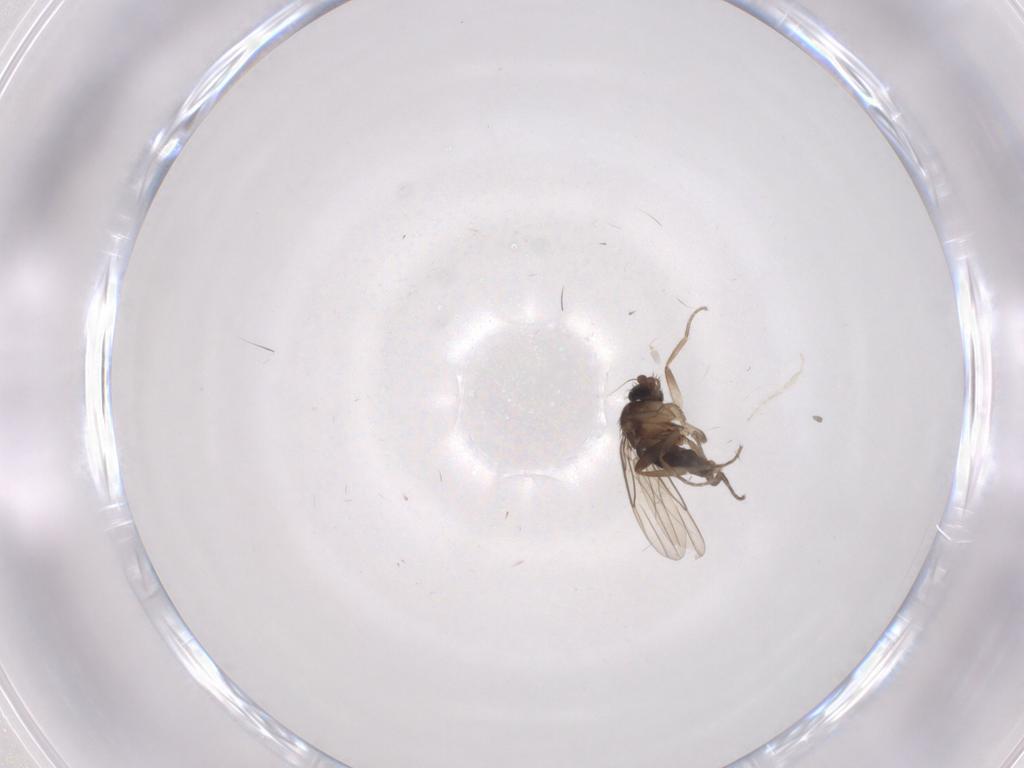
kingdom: Animalia
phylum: Arthropoda
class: Insecta
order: Diptera
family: Phoridae
